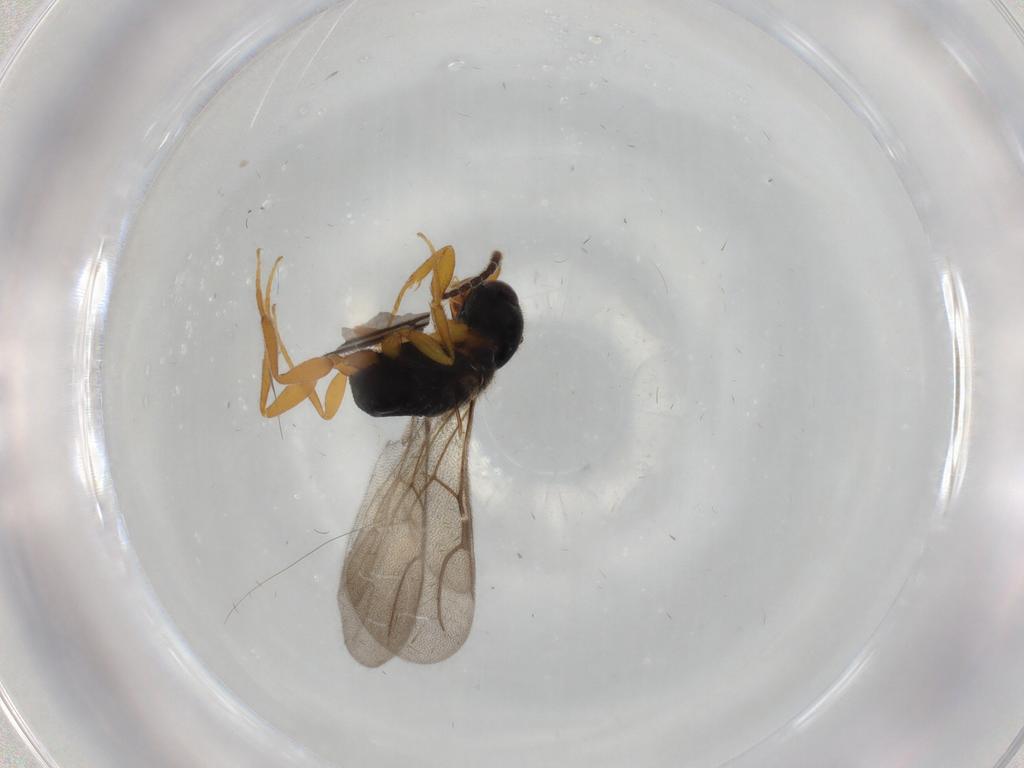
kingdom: Animalia
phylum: Arthropoda
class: Insecta
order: Hymenoptera
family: Bethylidae
